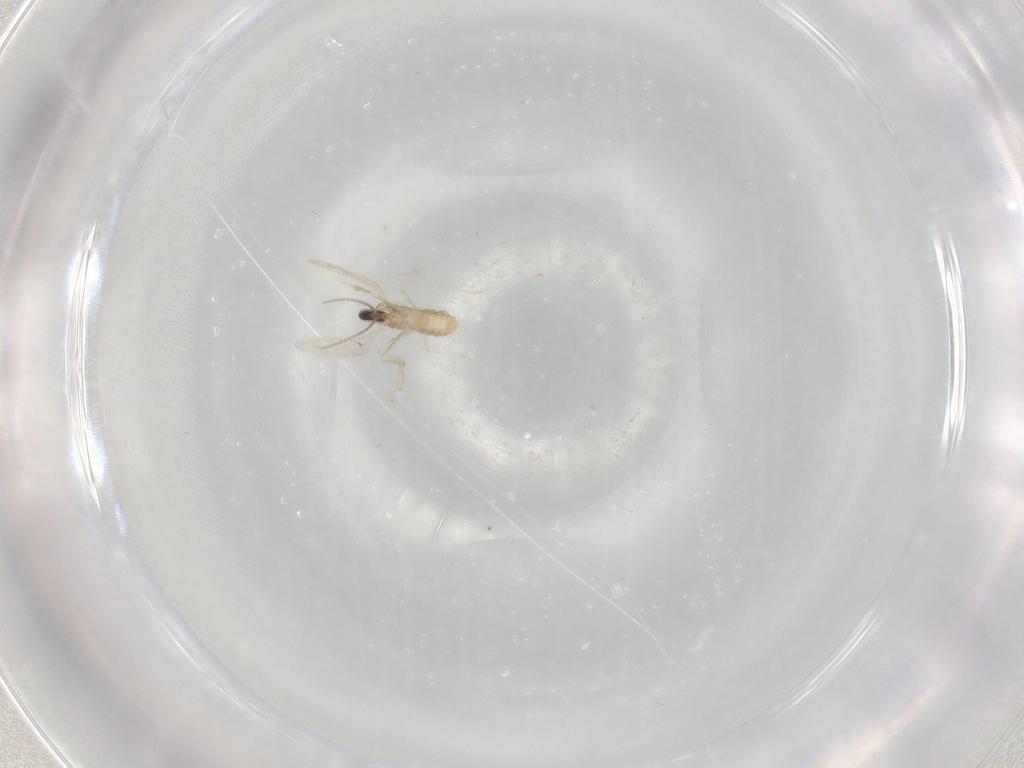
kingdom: Animalia
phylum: Arthropoda
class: Insecta
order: Diptera
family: Cecidomyiidae
